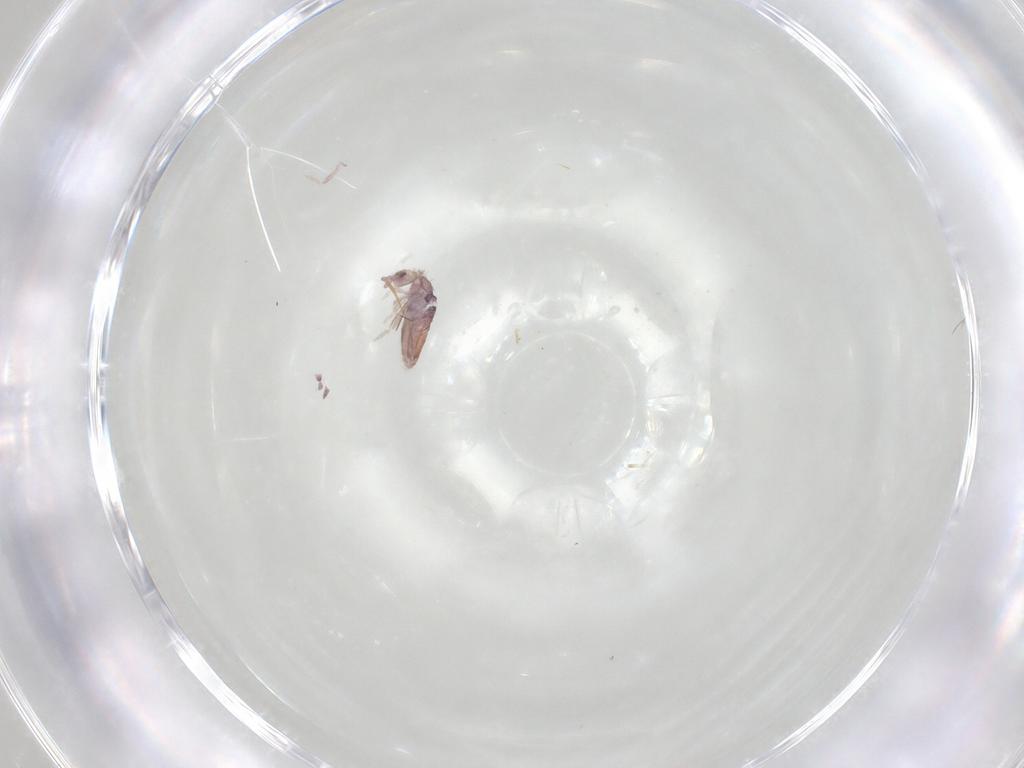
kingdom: Animalia
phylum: Arthropoda
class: Collembola
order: Entomobryomorpha
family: Entomobryidae
